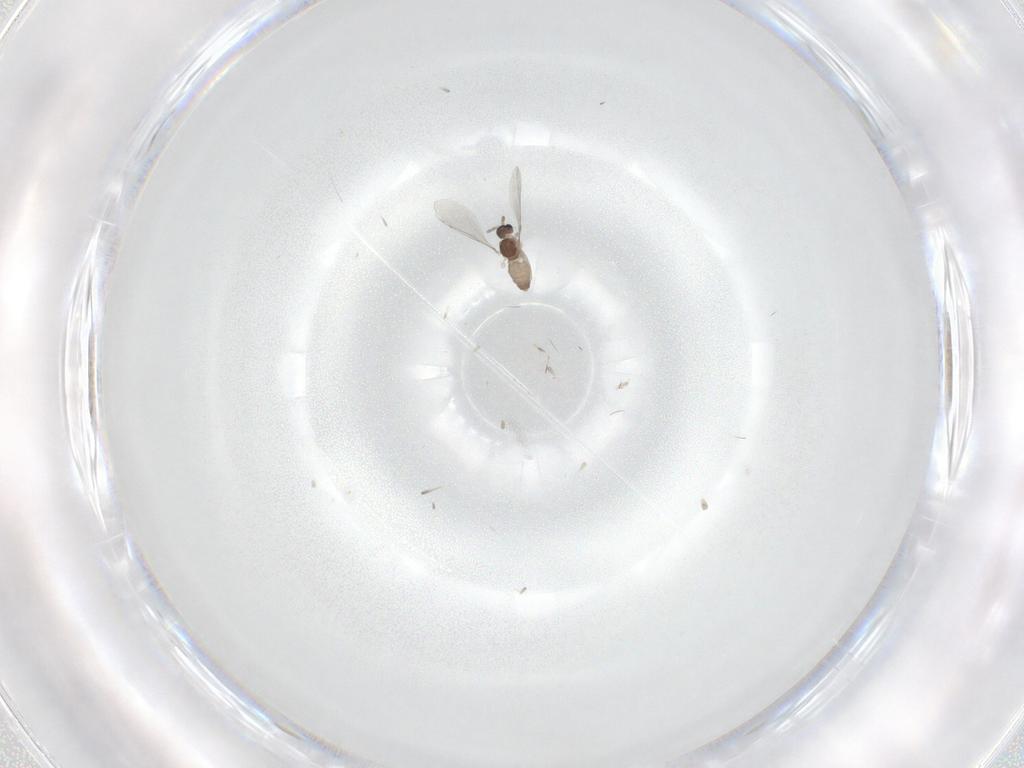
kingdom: Animalia
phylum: Arthropoda
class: Insecta
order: Diptera
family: Cecidomyiidae
